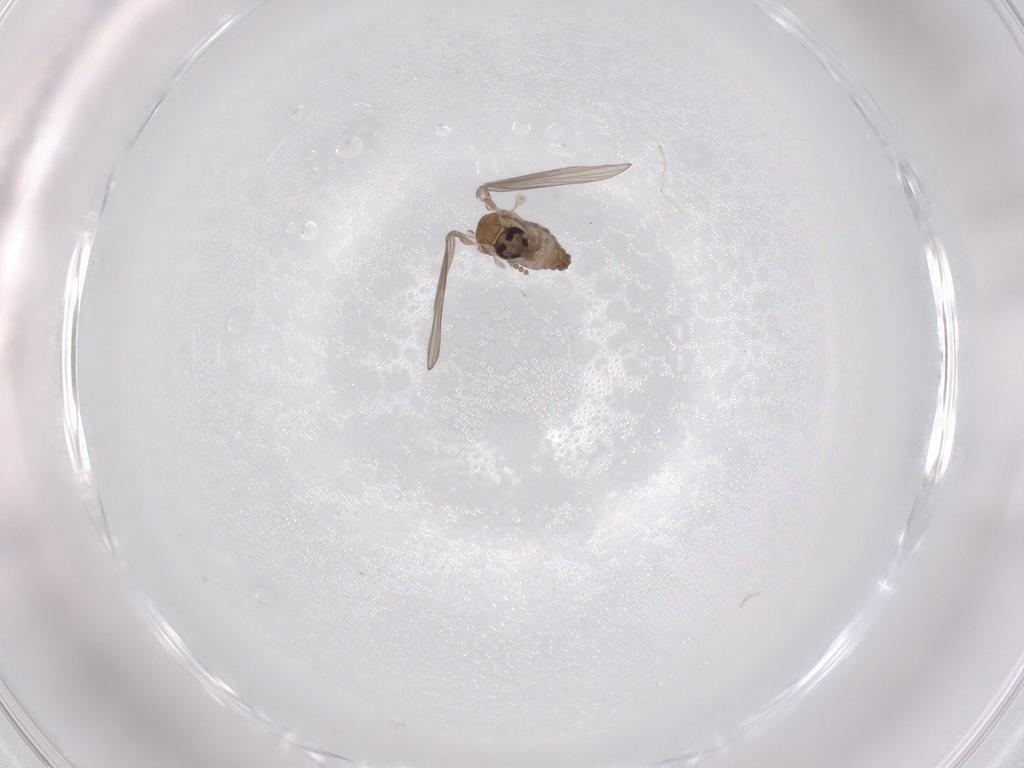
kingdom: Animalia
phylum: Arthropoda
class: Insecta
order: Diptera
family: Psychodidae
